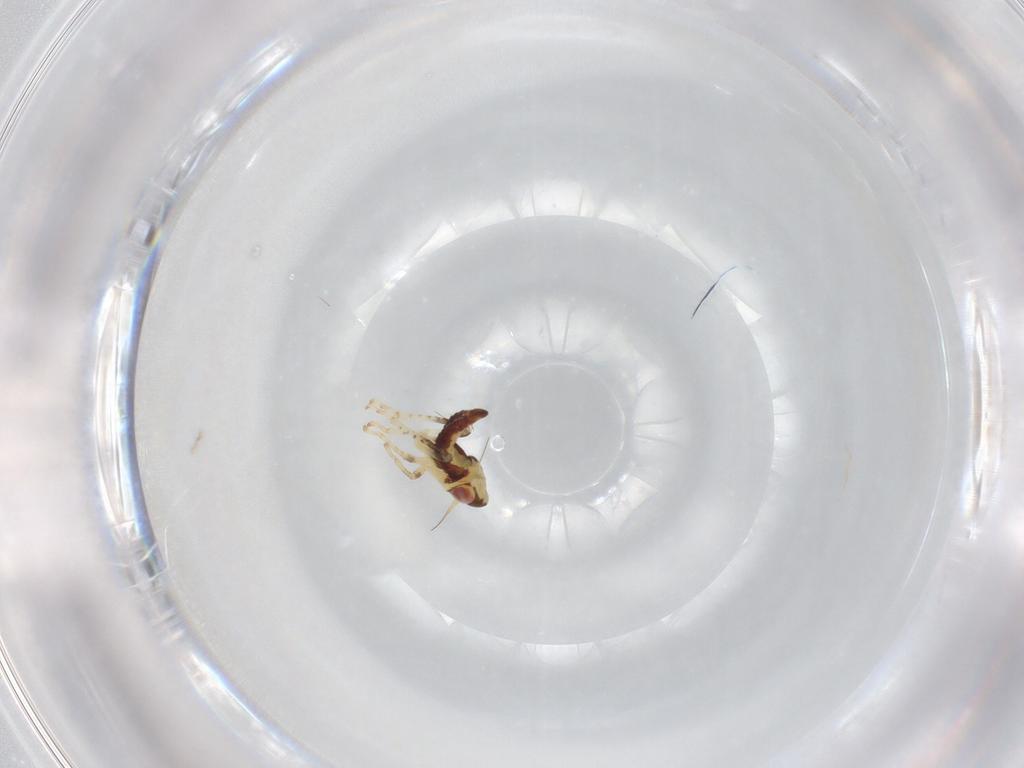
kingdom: Animalia
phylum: Arthropoda
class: Insecta
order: Hemiptera
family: Cicadellidae
